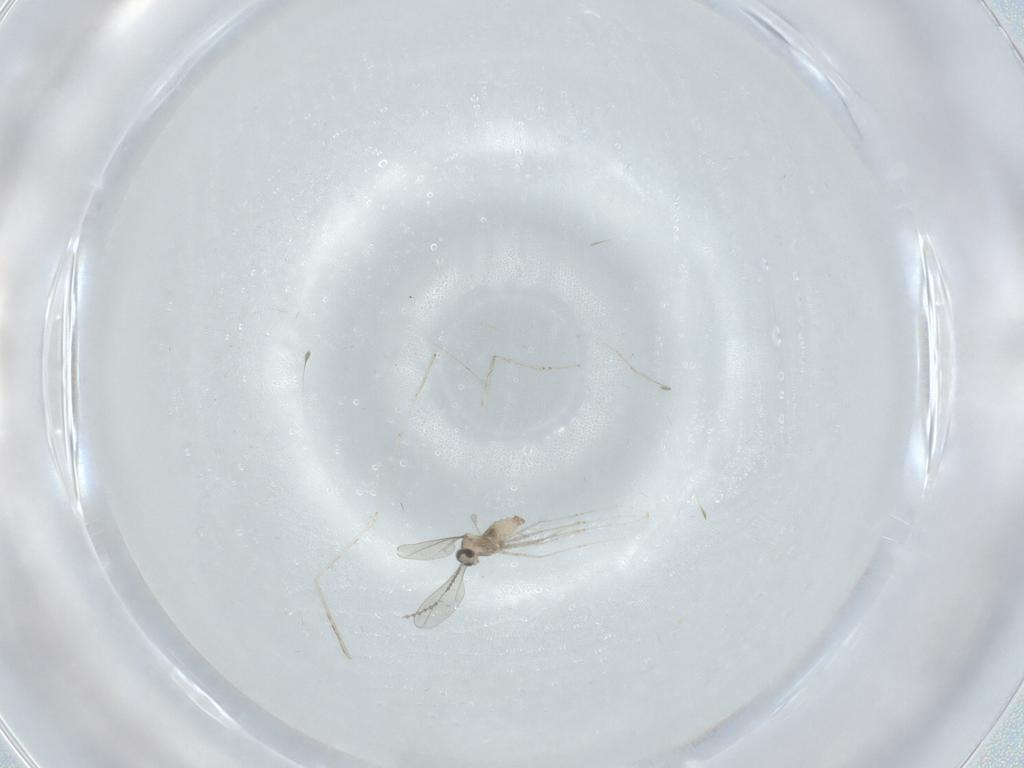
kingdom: Animalia
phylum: Arthropoda
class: Insecta
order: Diptera
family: Cecidomyiidae
